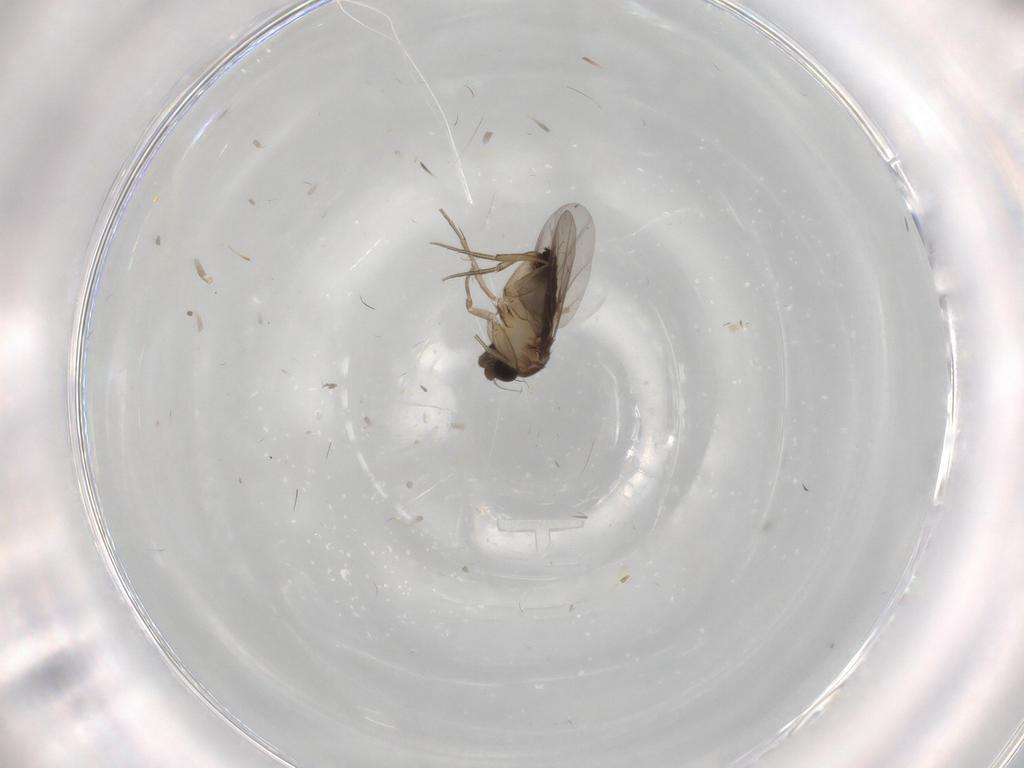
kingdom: Animalia
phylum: Arthropoda
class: Insecta
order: Diptera
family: Phoridae
